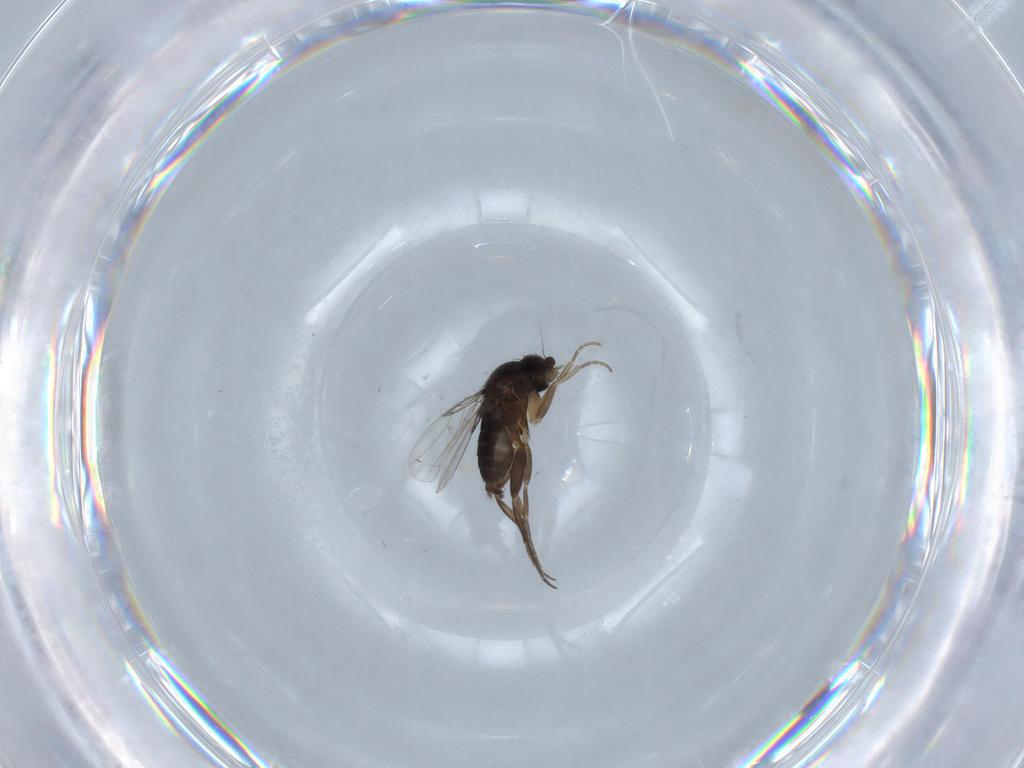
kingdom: Animalia
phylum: Arthropoda
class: Insecta
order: Diptera
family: Phoridae
